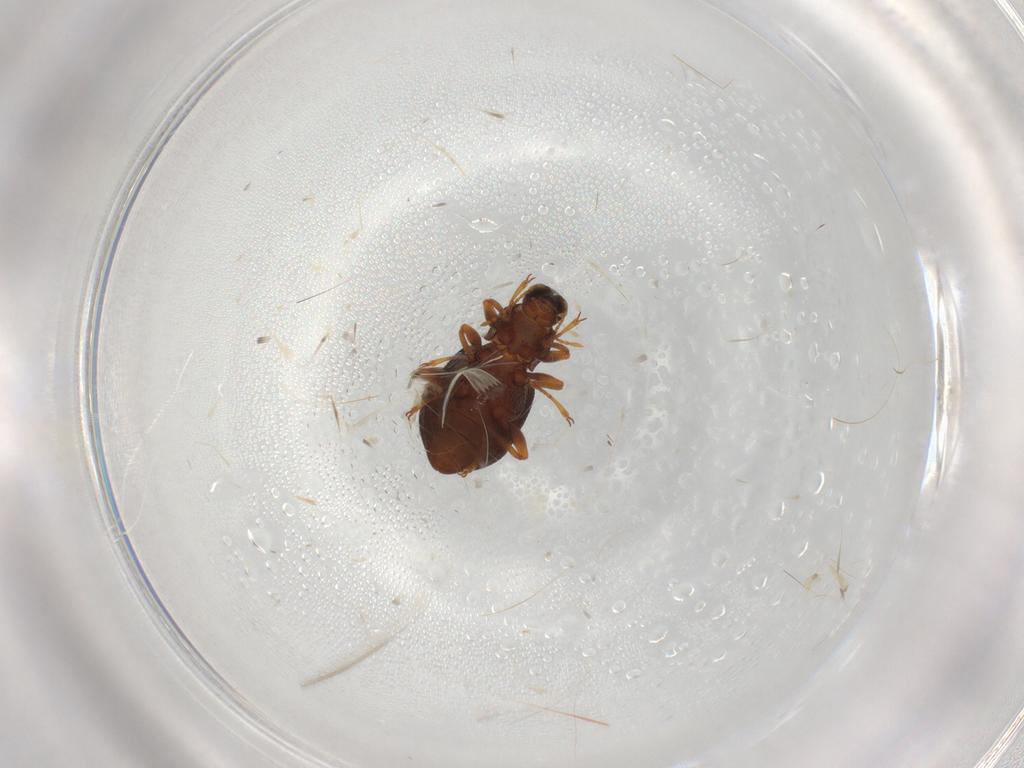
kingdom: Animalia
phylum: Arthropoda
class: Insecta
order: Coleoptera
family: Elmidae
